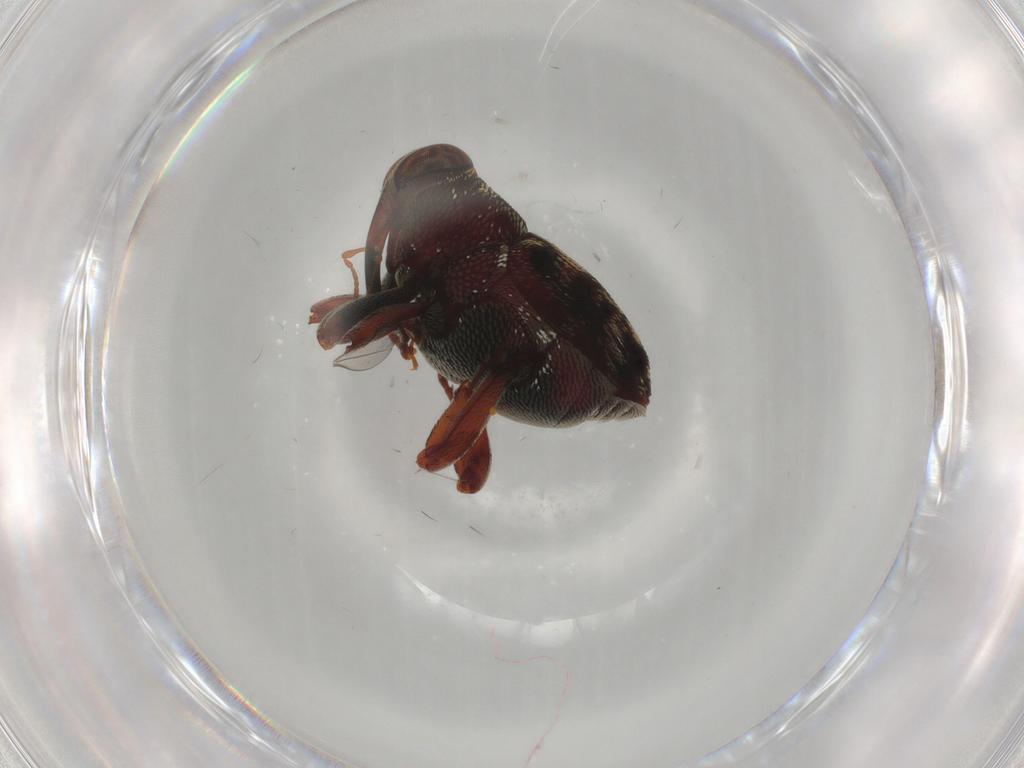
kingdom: Animalia
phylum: Arthropoda
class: Insecta
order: Coleoptera
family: Curculionidae
